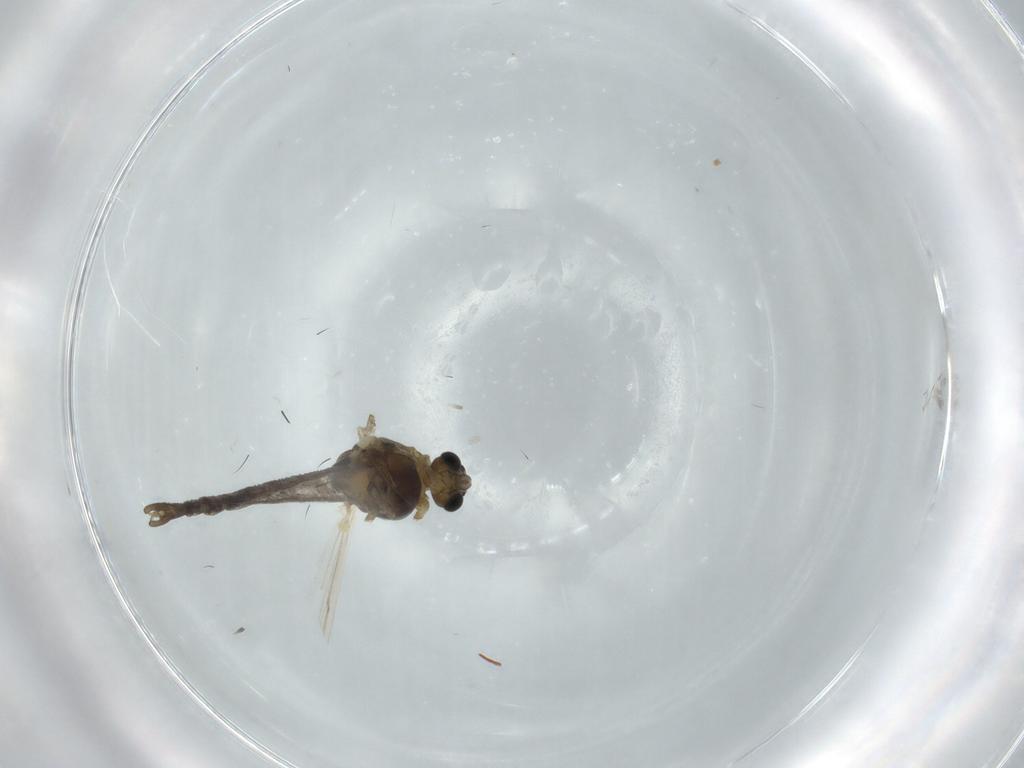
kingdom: Animalia
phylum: Arthropoda
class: Insecta
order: Diptera
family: Chironomidae
